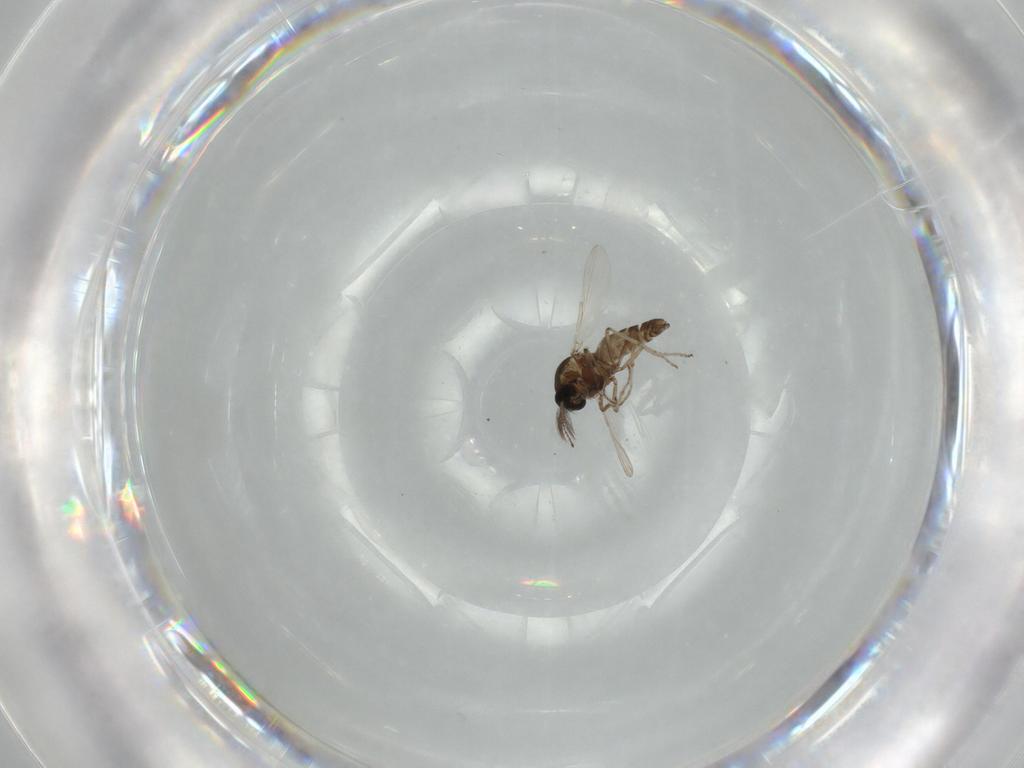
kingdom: Animalia
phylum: Arthropoda
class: Insecta
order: Diptera
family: Ceratopogonidae
